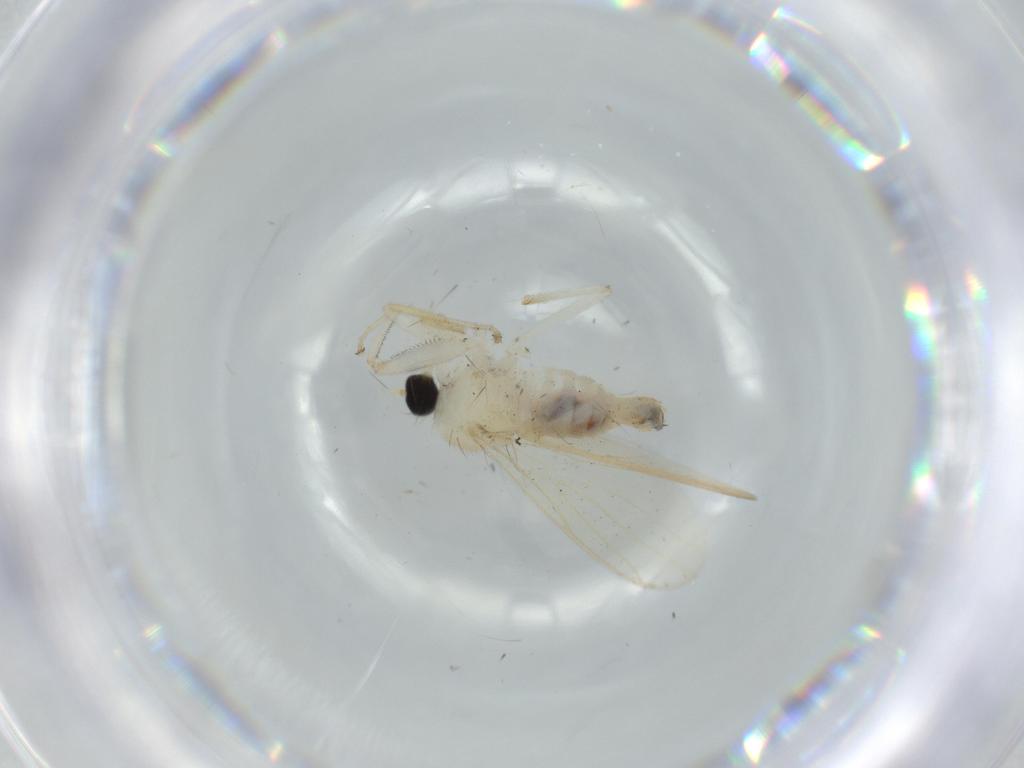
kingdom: Animalia
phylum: Arthropoda
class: Insecta
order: Diptera
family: Hybotidae
